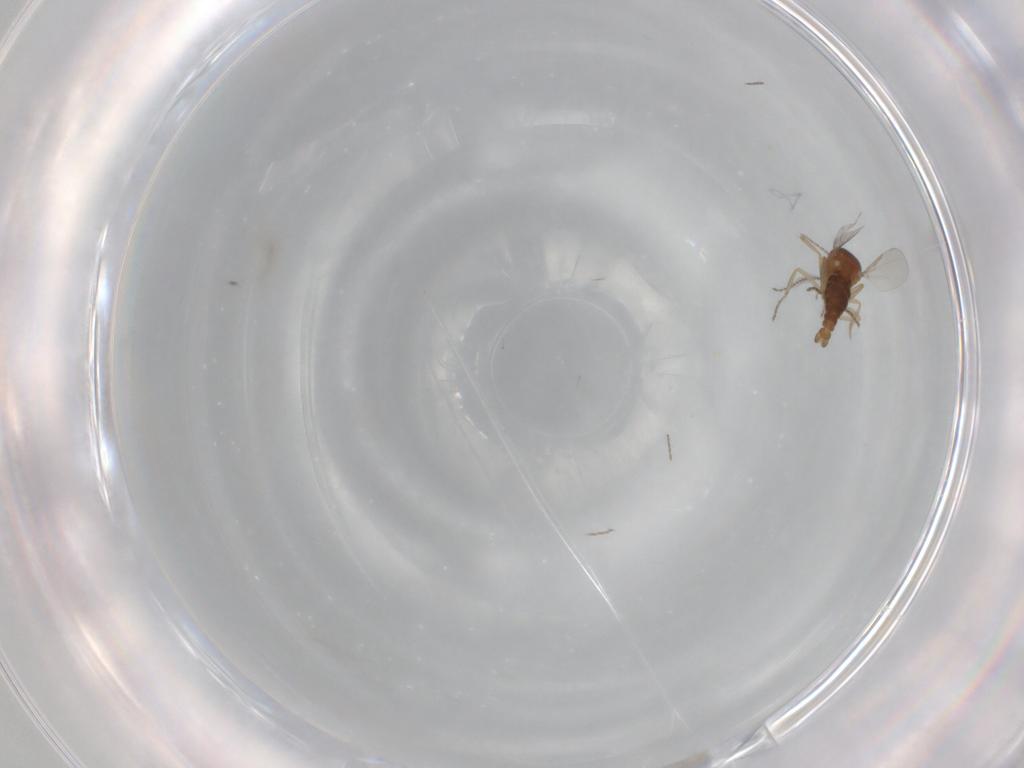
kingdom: Animalia
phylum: Arthropoda
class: Insecta
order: Diptera
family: Ceratopogonidae
